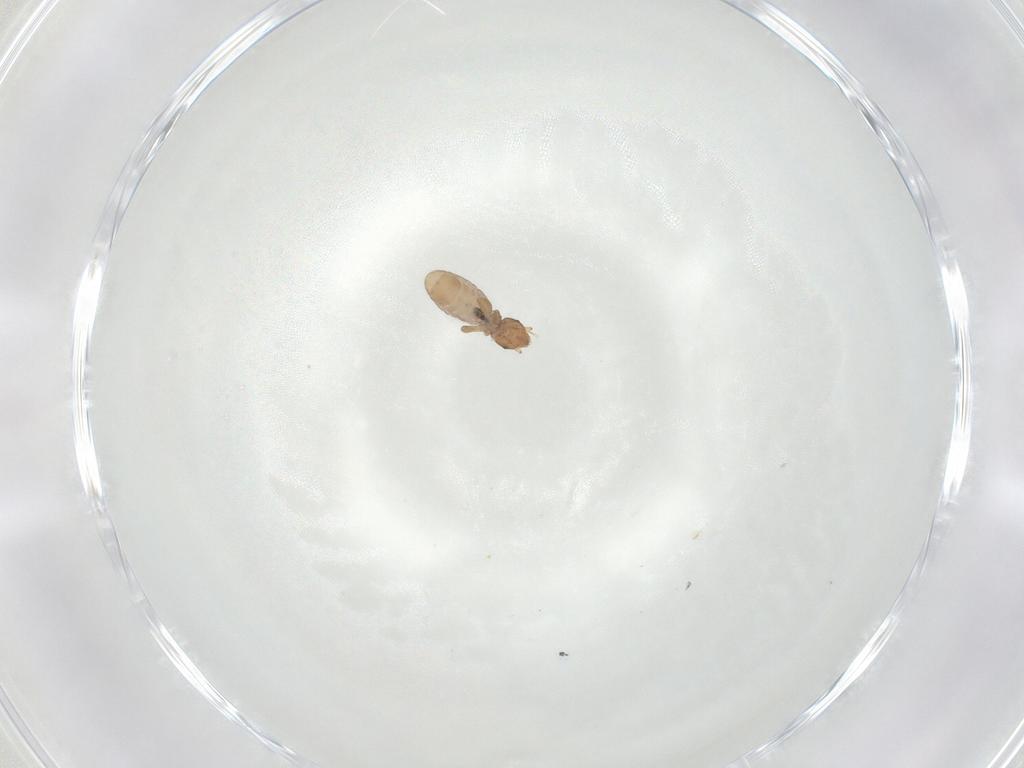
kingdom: Animalia
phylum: Arthropoda
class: Insecta
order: Psocodea
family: Liposcelididae
